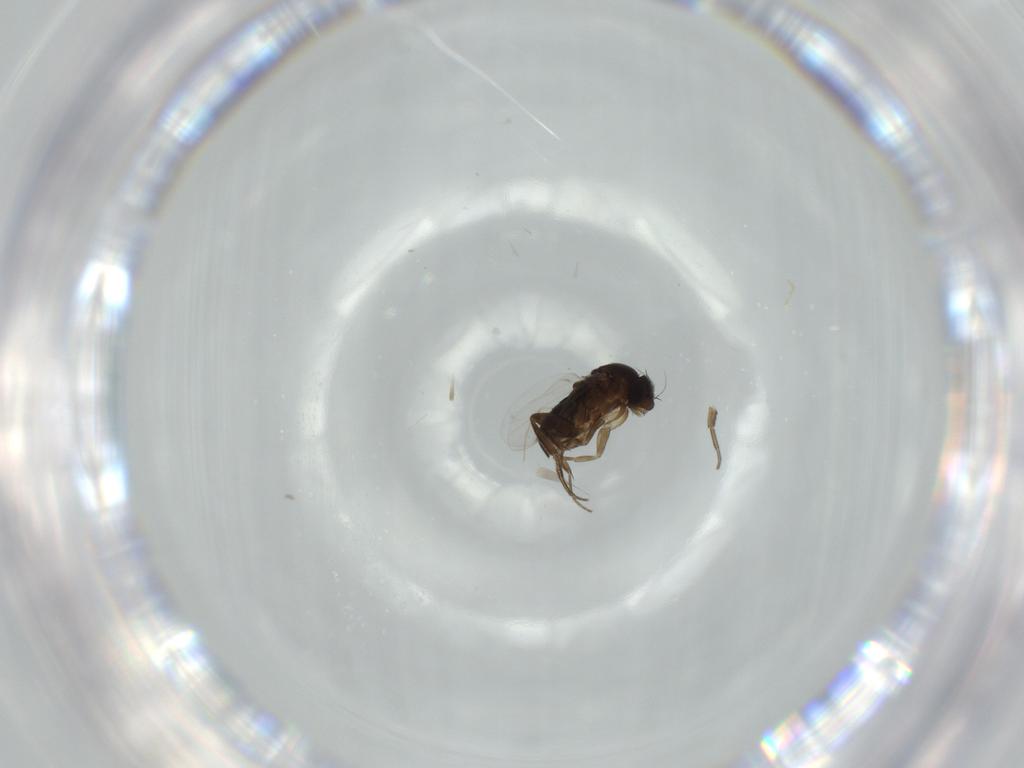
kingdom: Animalia
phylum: Arthropoda
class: Insecta
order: Diptera
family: Phoridae
